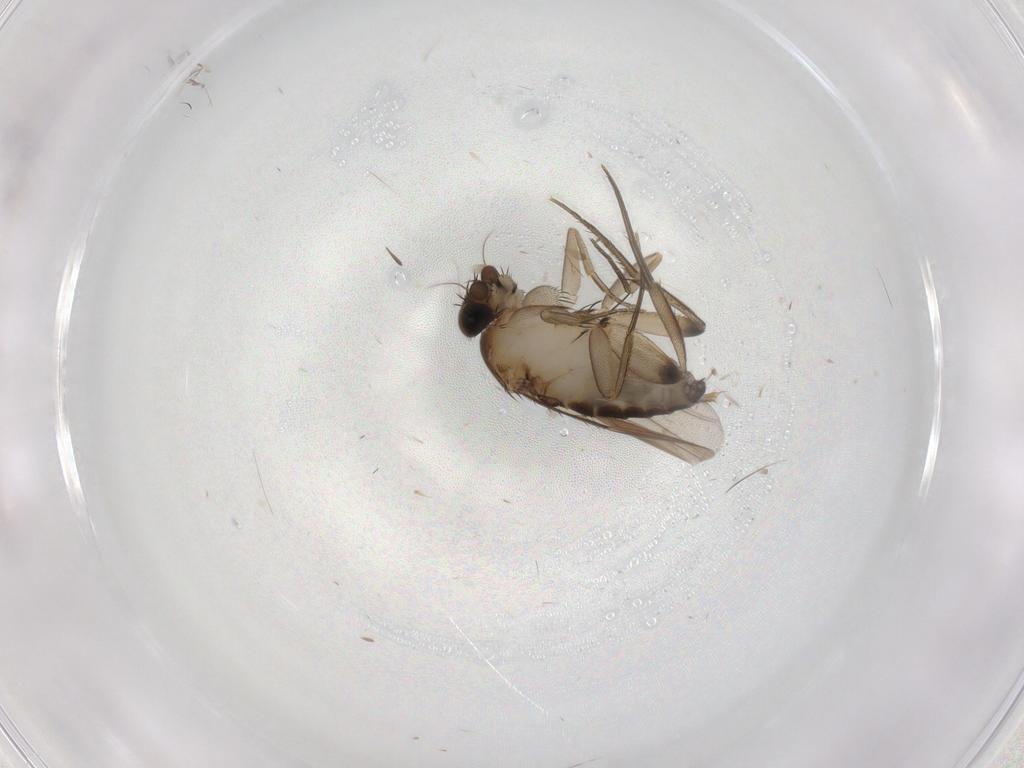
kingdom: Animalia
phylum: Arthropoda
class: Insecta
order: Diptera
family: Phoridae
